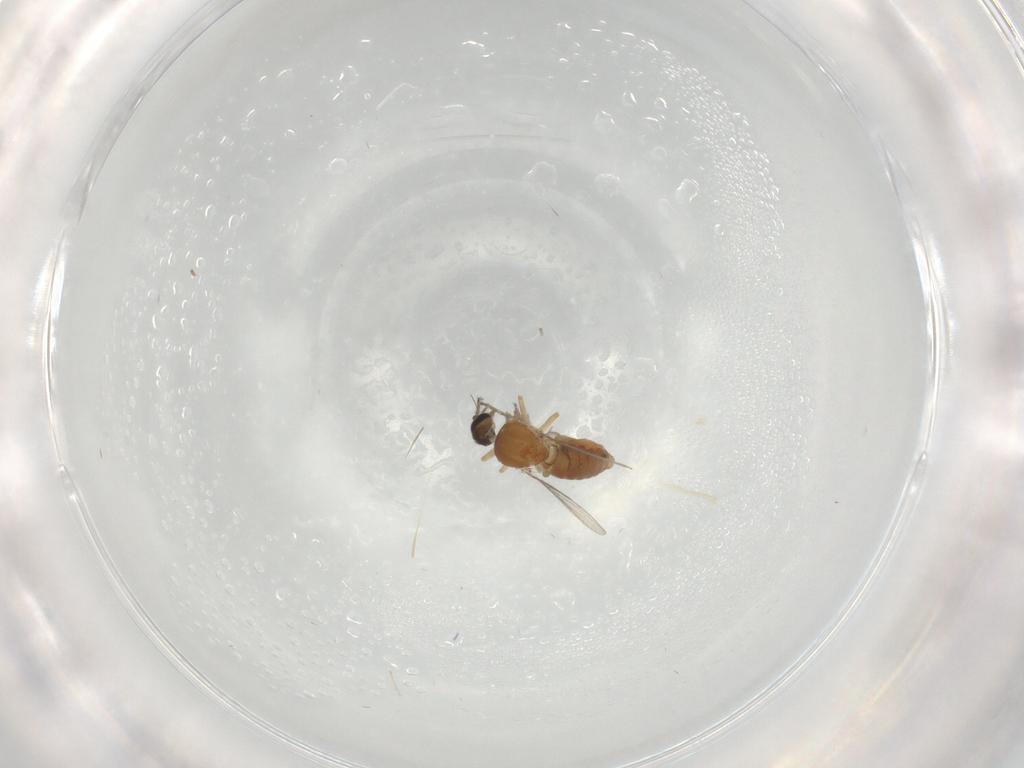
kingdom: Animalia
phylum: Arthropoda
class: Insecta
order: Diptera
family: Ceratopogonidae
